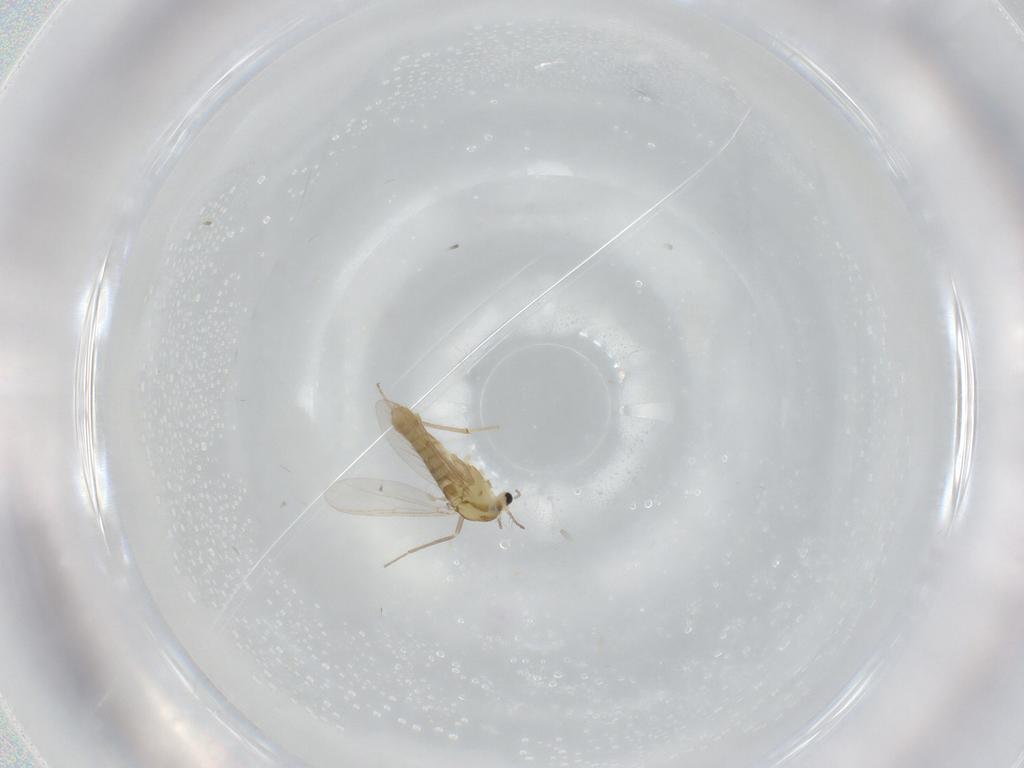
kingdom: Animalia
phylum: Arthropoda
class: Insecta
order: Diptera
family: Chironomidae
